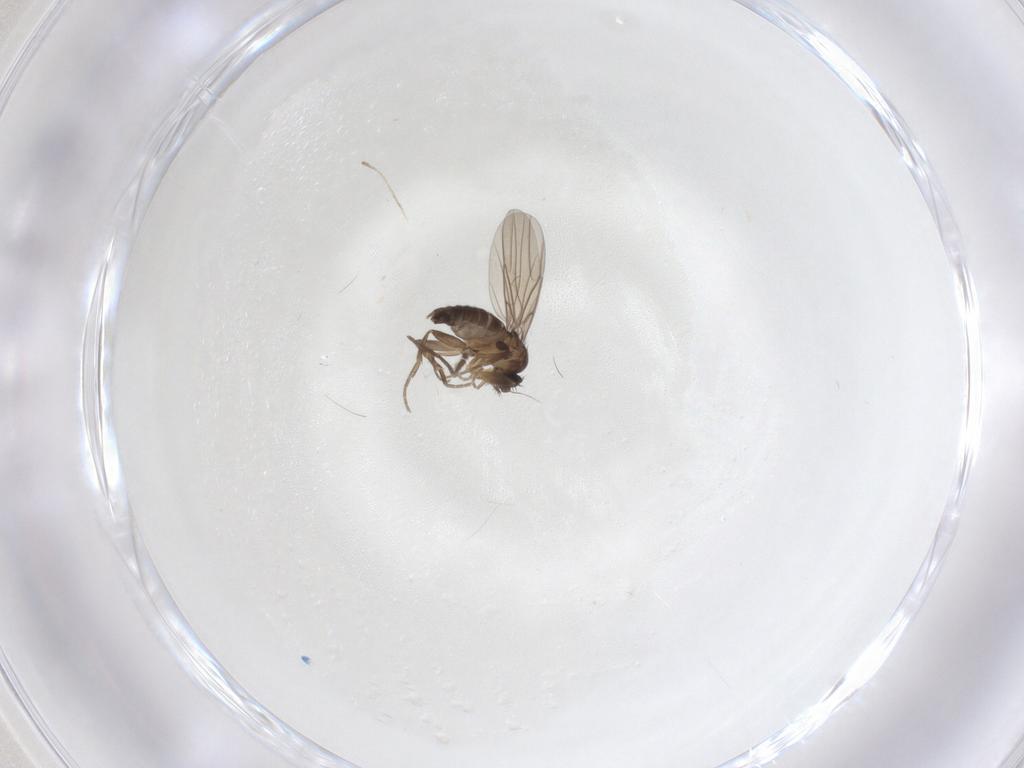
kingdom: Animalia
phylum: Arthropoda
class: Insecta
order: Diptera
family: Phoridae
